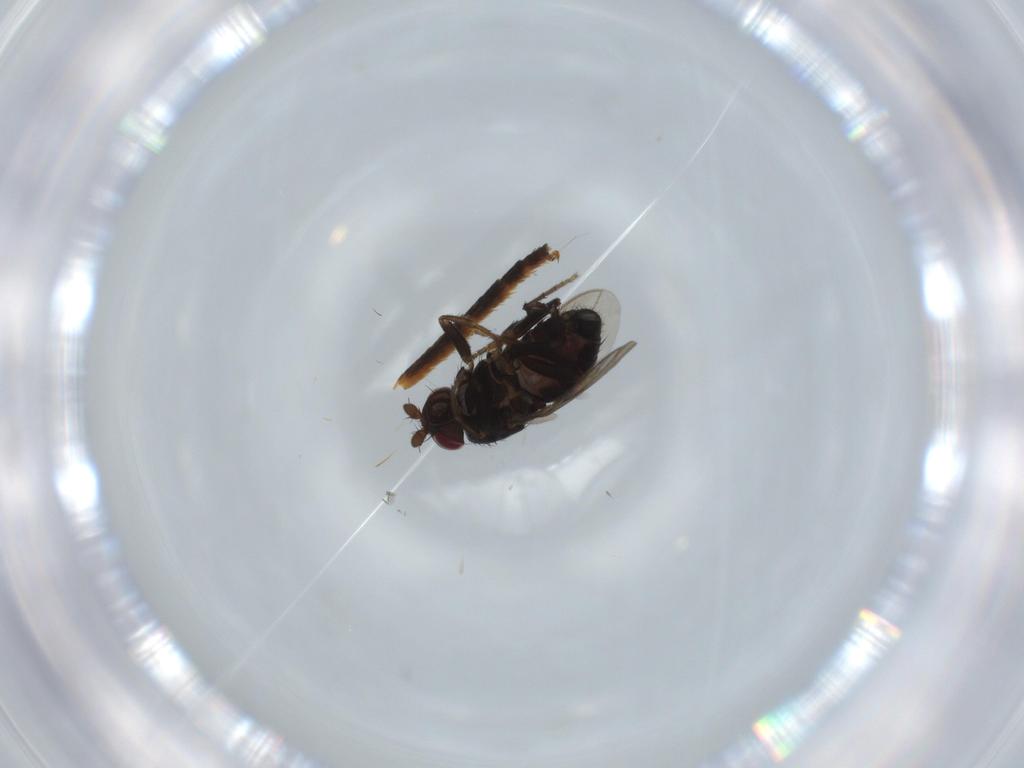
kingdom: Animalia
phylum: Arthropoda
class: Insecta
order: Diptera
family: Sphaeroceridae
